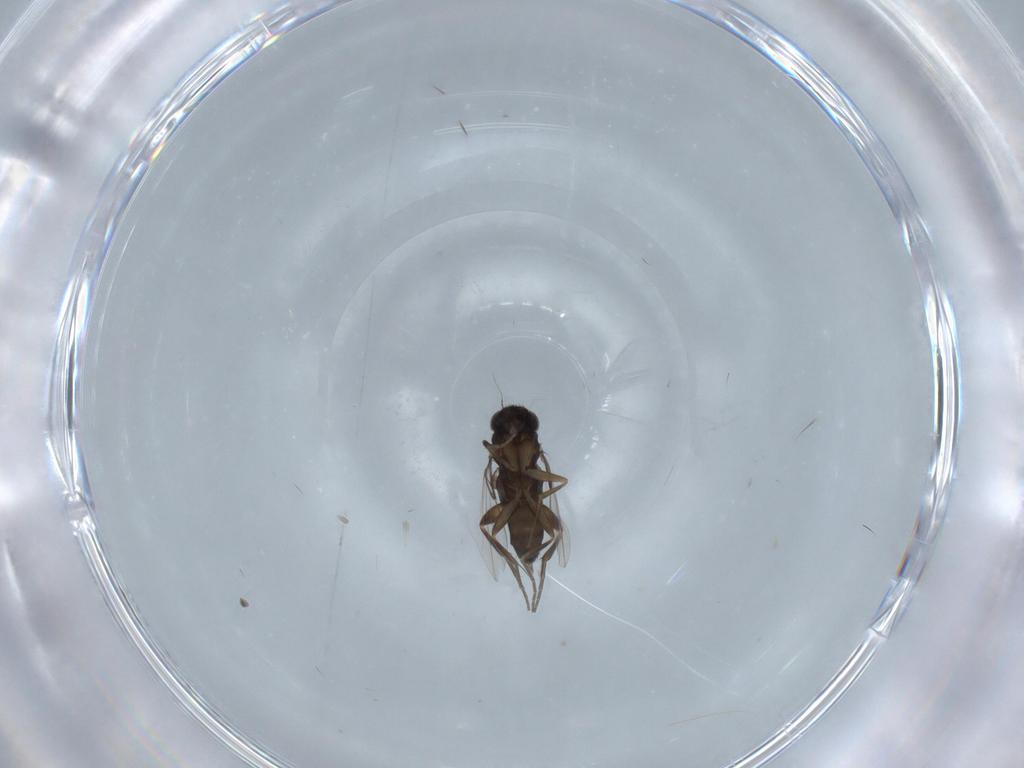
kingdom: Animalia
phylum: Arthropoda
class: Insecta
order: Diptera
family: Phoridae
